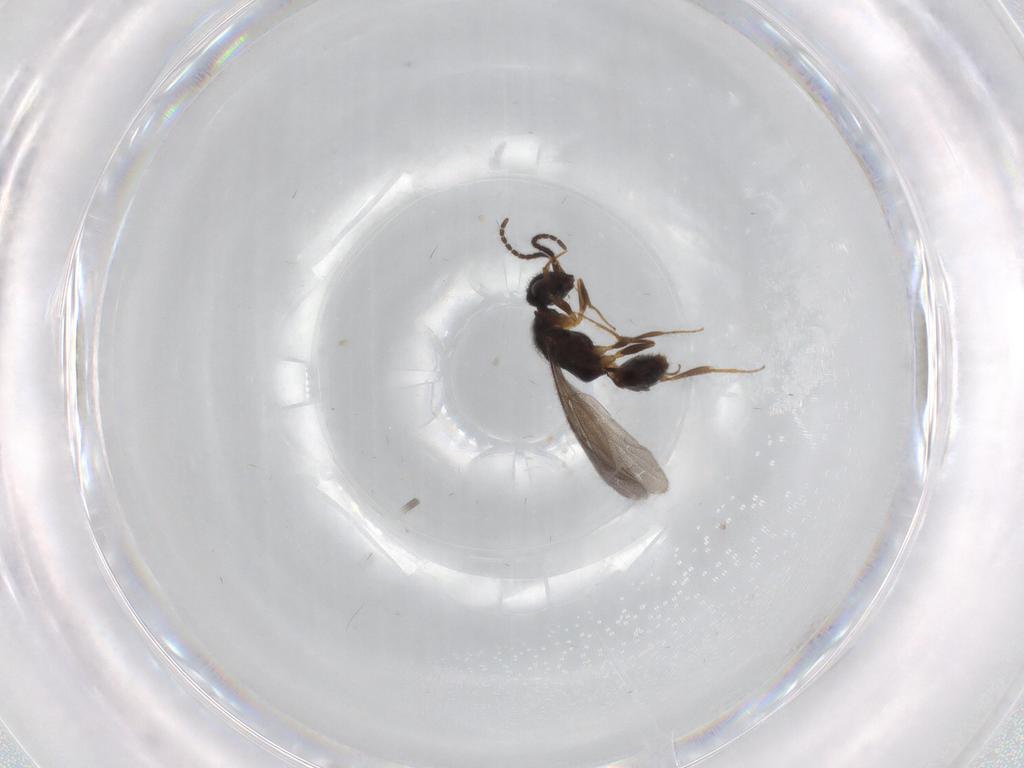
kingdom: Animalia
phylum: Arthropoda
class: Insecta
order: Hymenoptera
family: Bethylidae
